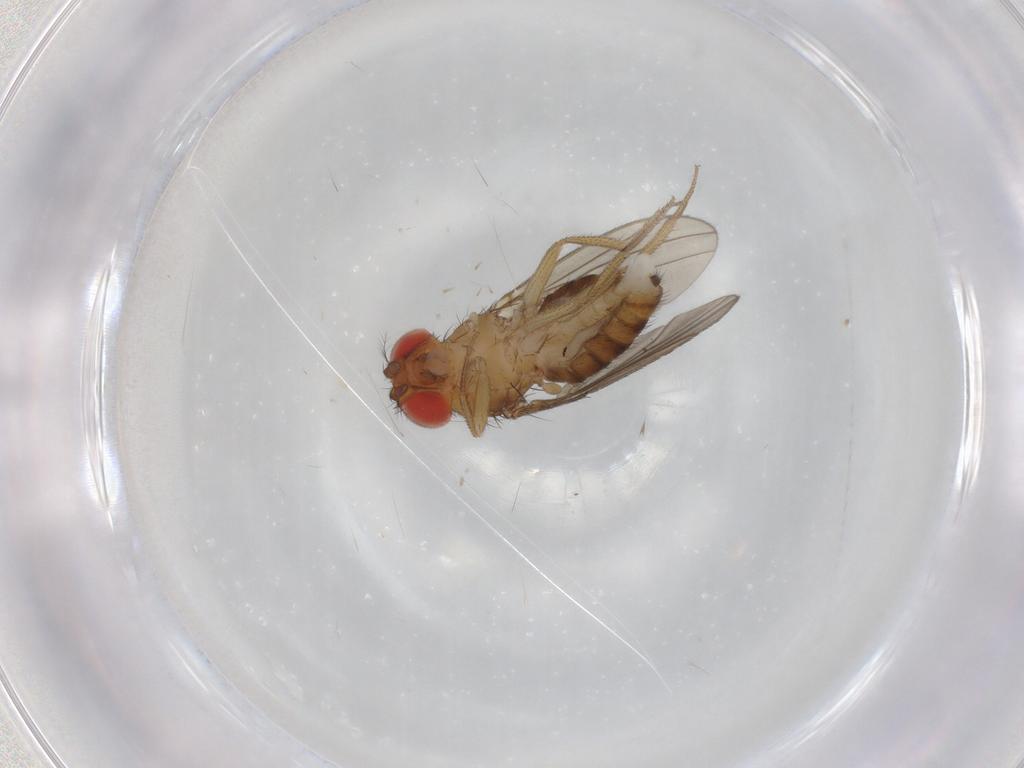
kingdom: Animalia
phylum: Arthropoda
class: Insecta
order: Diptera
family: Drosophilidae
